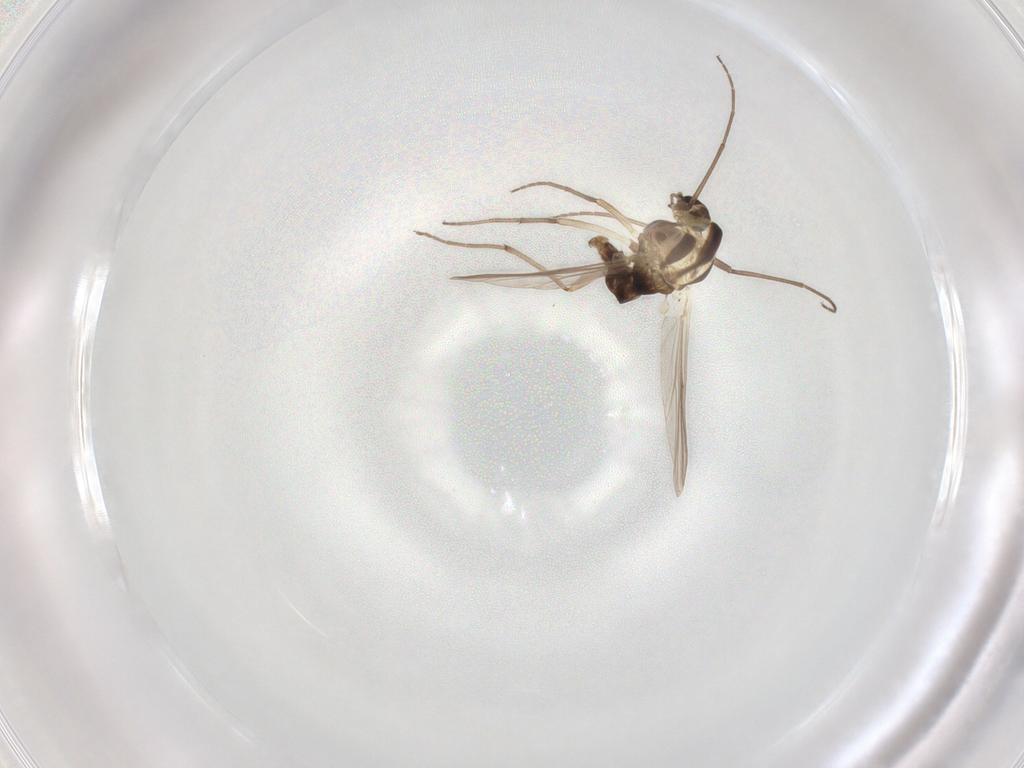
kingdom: Animalia
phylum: Arthropoda
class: Insecta
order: Diptera
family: Chironomidae
